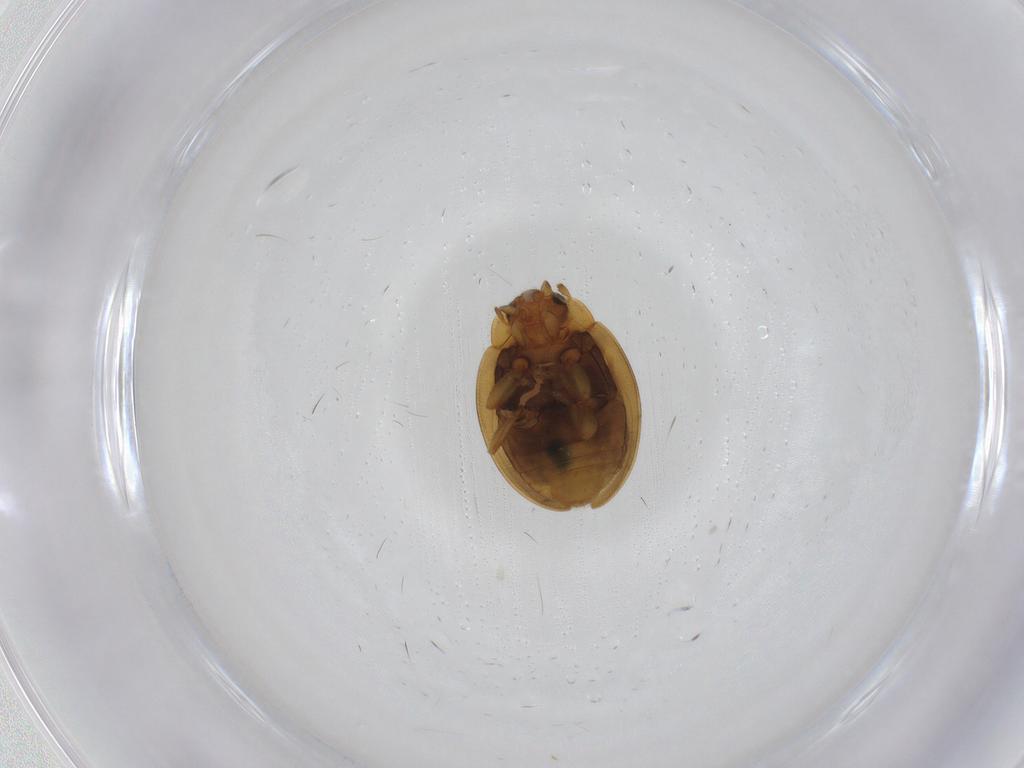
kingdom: Animalia
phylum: Arthropoda
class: Insecta
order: Coleoptera
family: Coccinellidae
